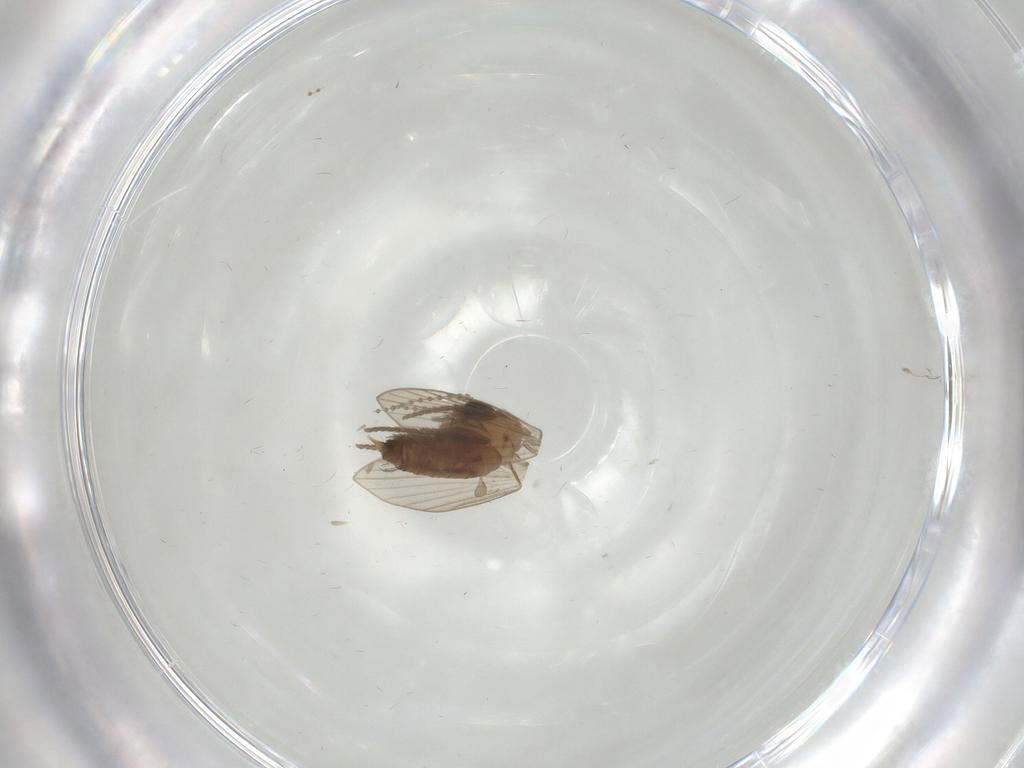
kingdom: Animalia
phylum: Arthropoda
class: Insecta
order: Diptera
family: Psychodidae
